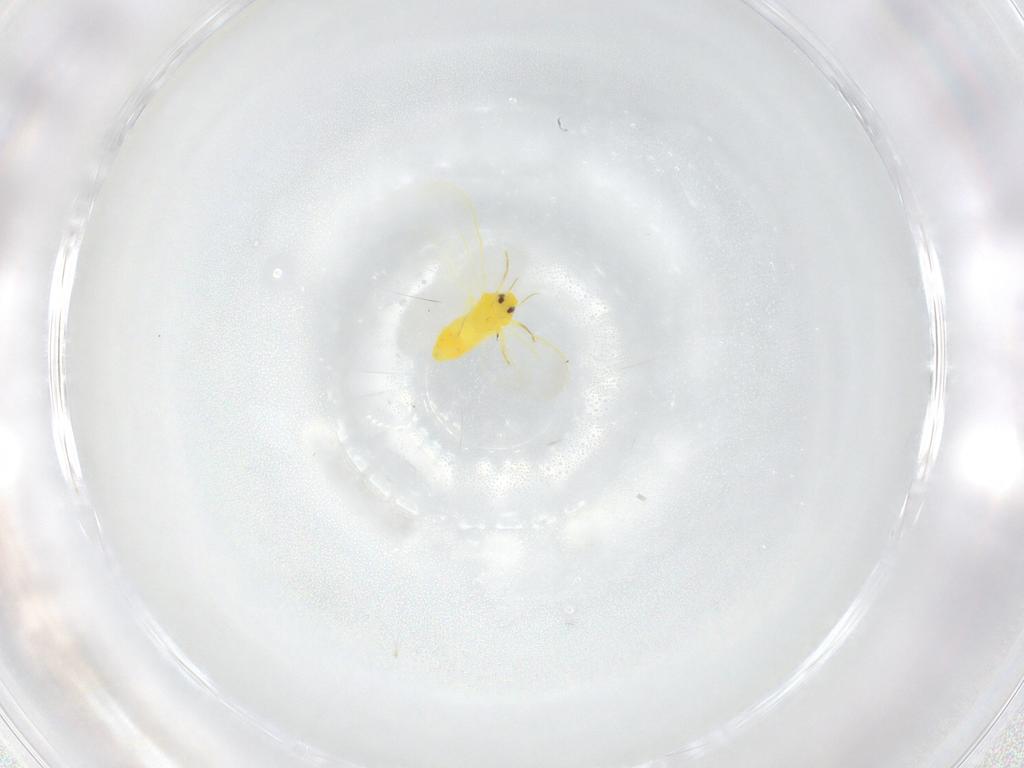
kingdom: Animalia
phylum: Arthropoda
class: Insecta
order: Hemiptera
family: Aleyrodidae
